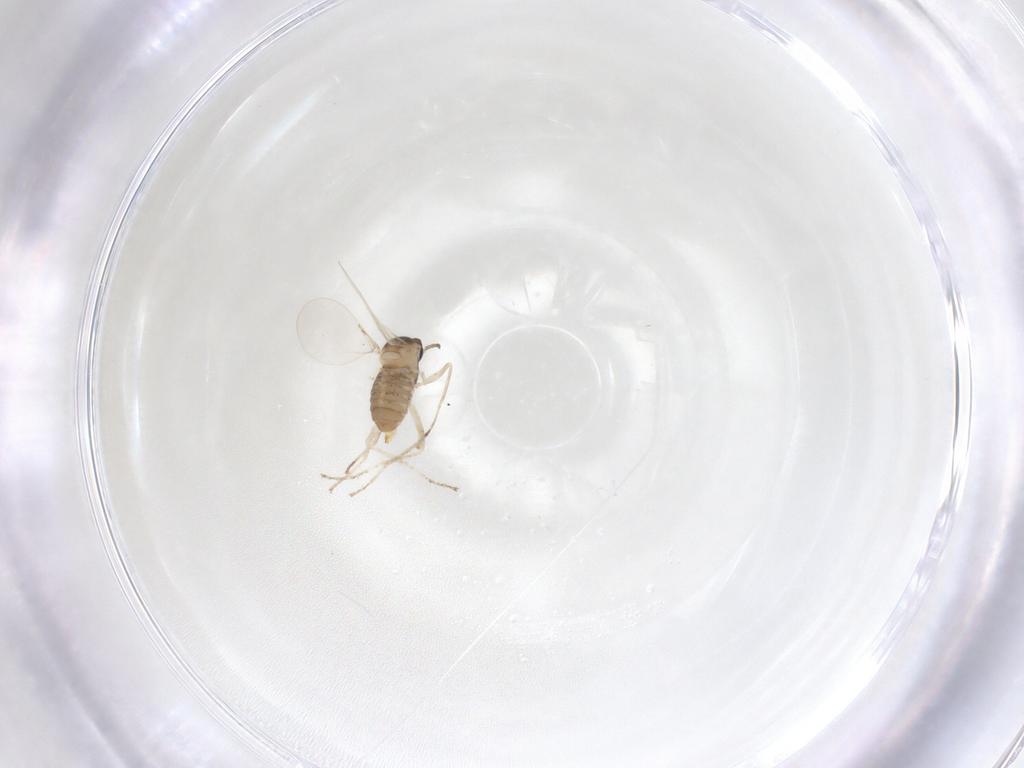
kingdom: Animalia
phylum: Arthropoda
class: Insecta
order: Diptera
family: Cecidomyiidae
